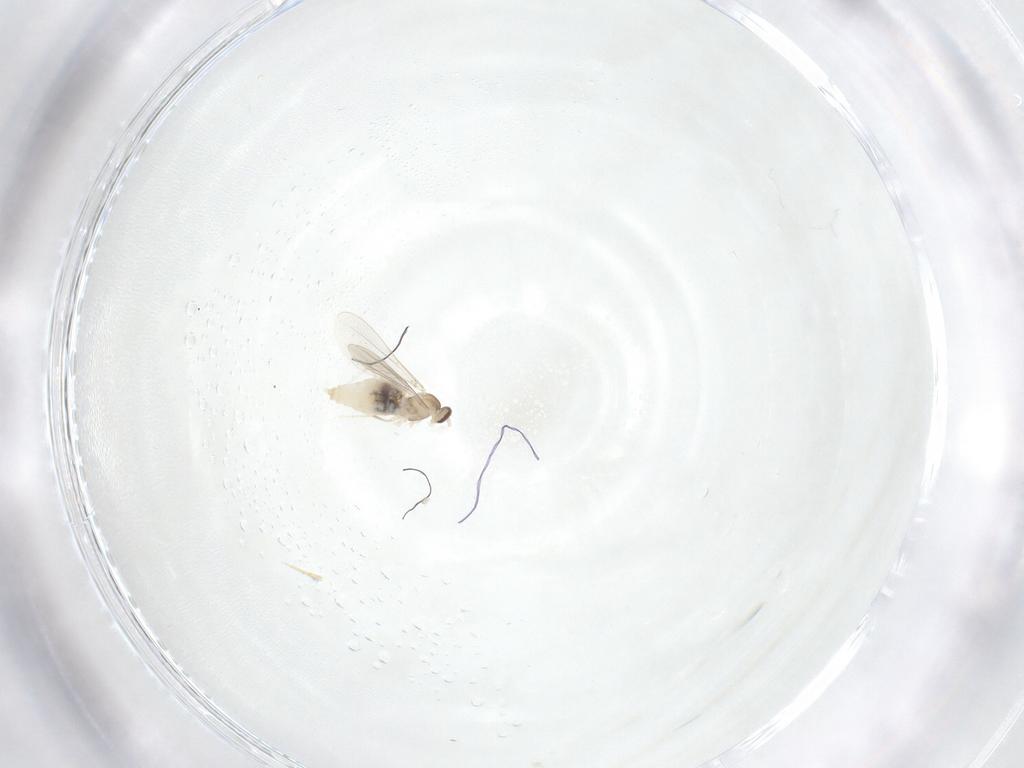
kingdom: Animalia
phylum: Arthropoda
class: Insecta
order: Diptera
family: Cecidomyiidae
